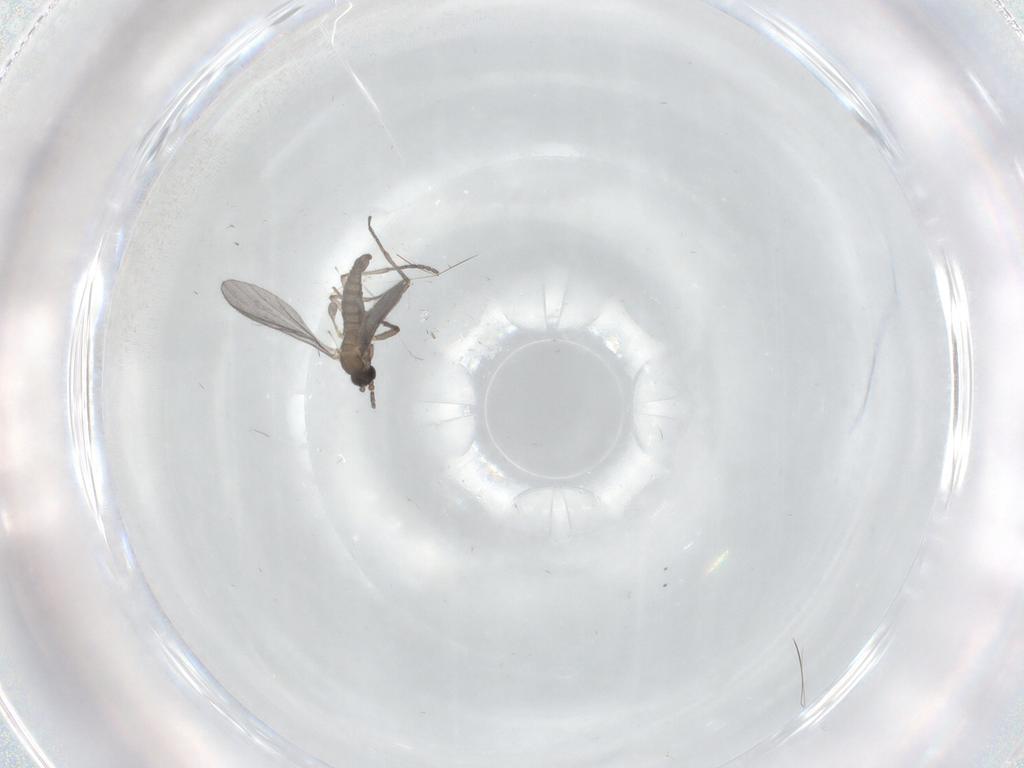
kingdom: Animalia
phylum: Arthropoda
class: Insecta
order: Diptera
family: Sciaridae
